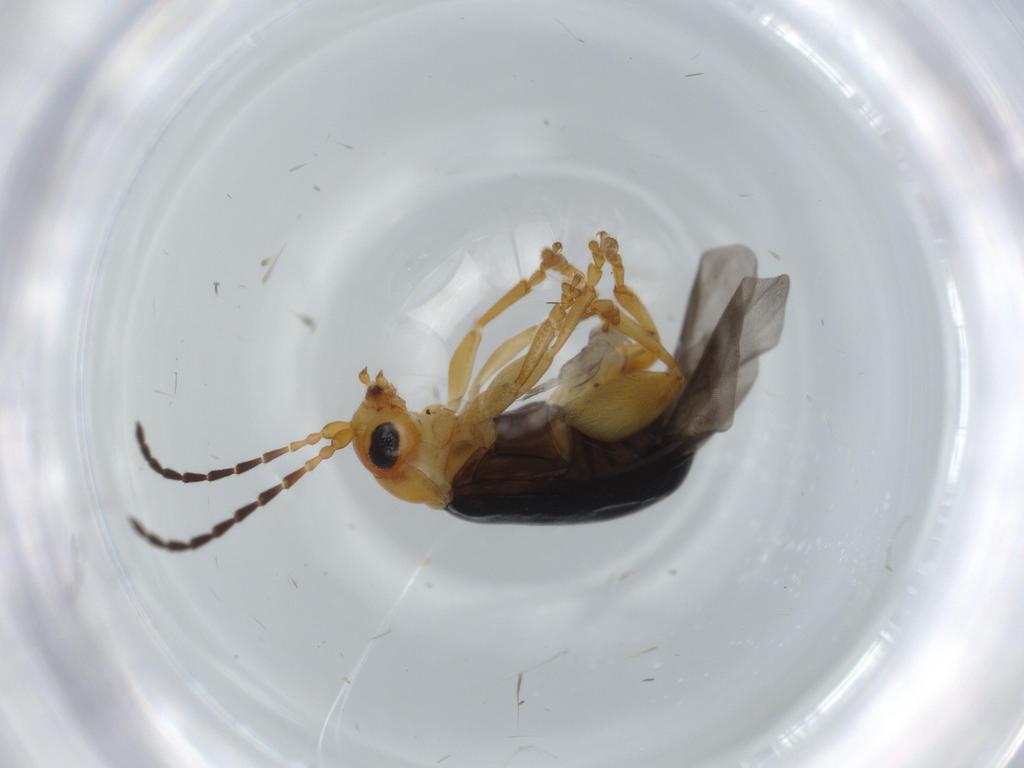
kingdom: Animalia
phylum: Arthropoda
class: Insecta
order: Coleoptera
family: Chrysomelidae
